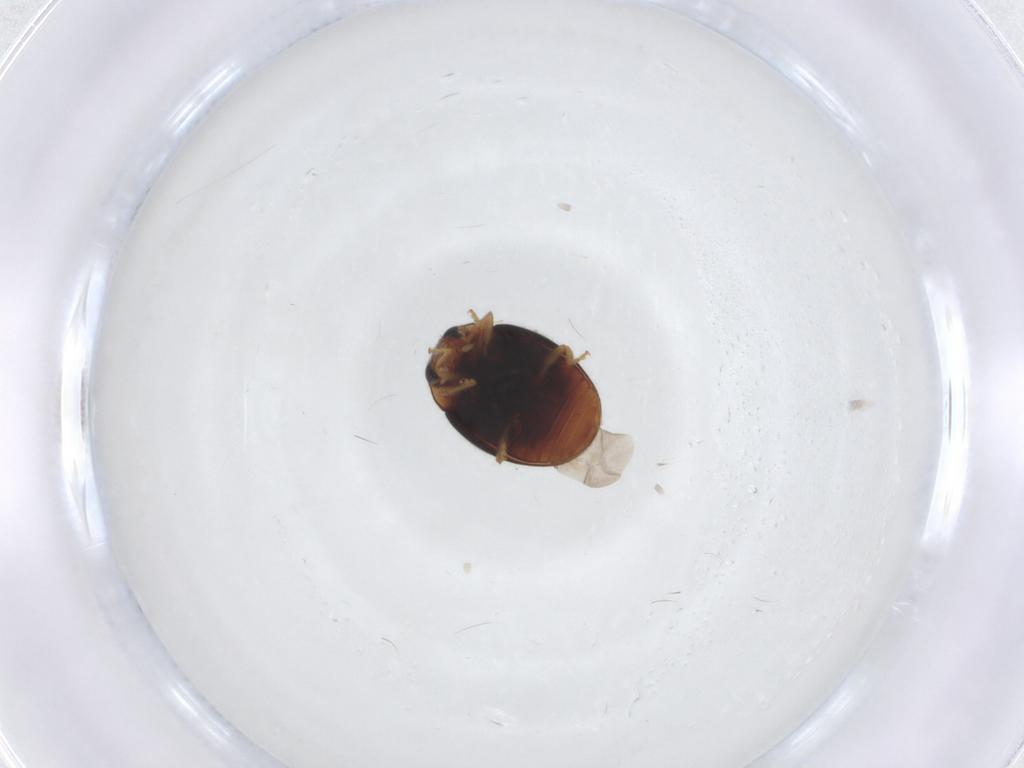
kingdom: Animalia
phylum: Arthropoda
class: Insecta
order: Coleoptera
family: Coccinellidae
